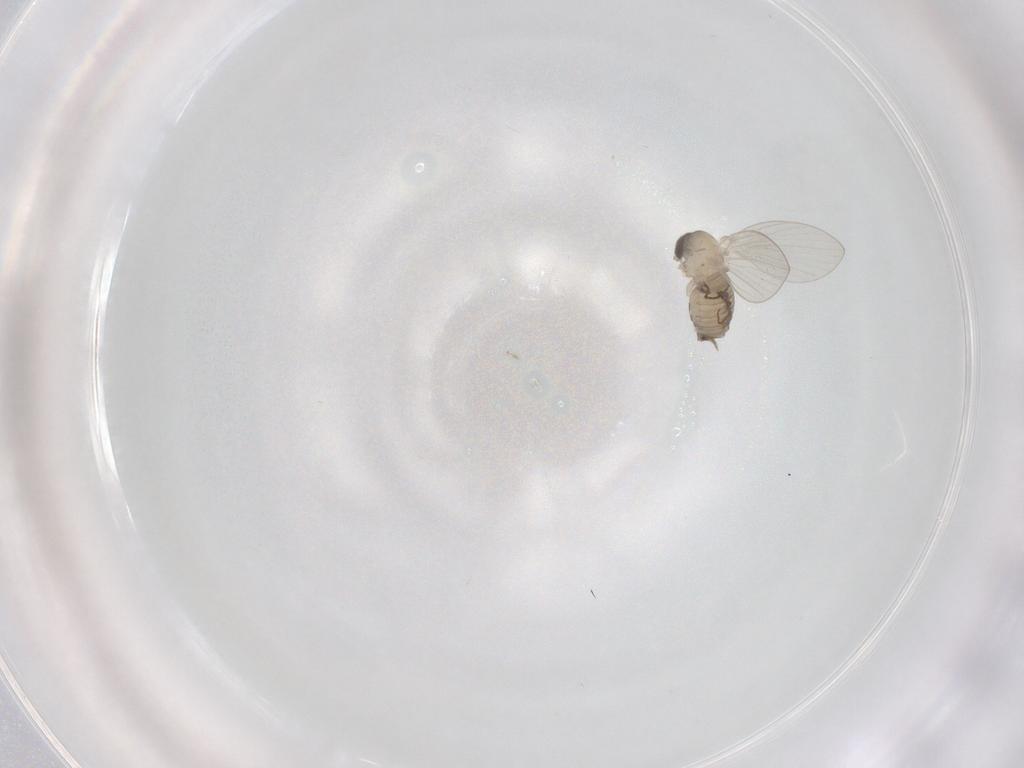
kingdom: Animalia
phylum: Arthropoda
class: Insecta
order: Diptera
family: Psychodidae
